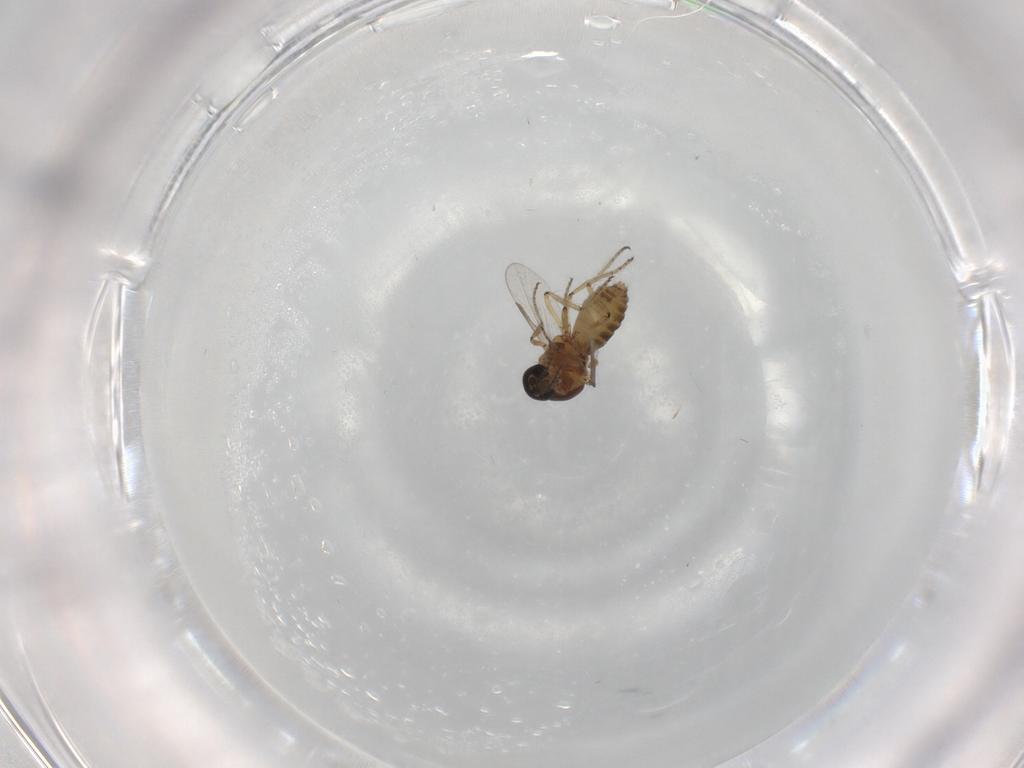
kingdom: Animalia
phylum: Arthropoda
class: Insecta
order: Diptera
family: Ceratopogonidae
